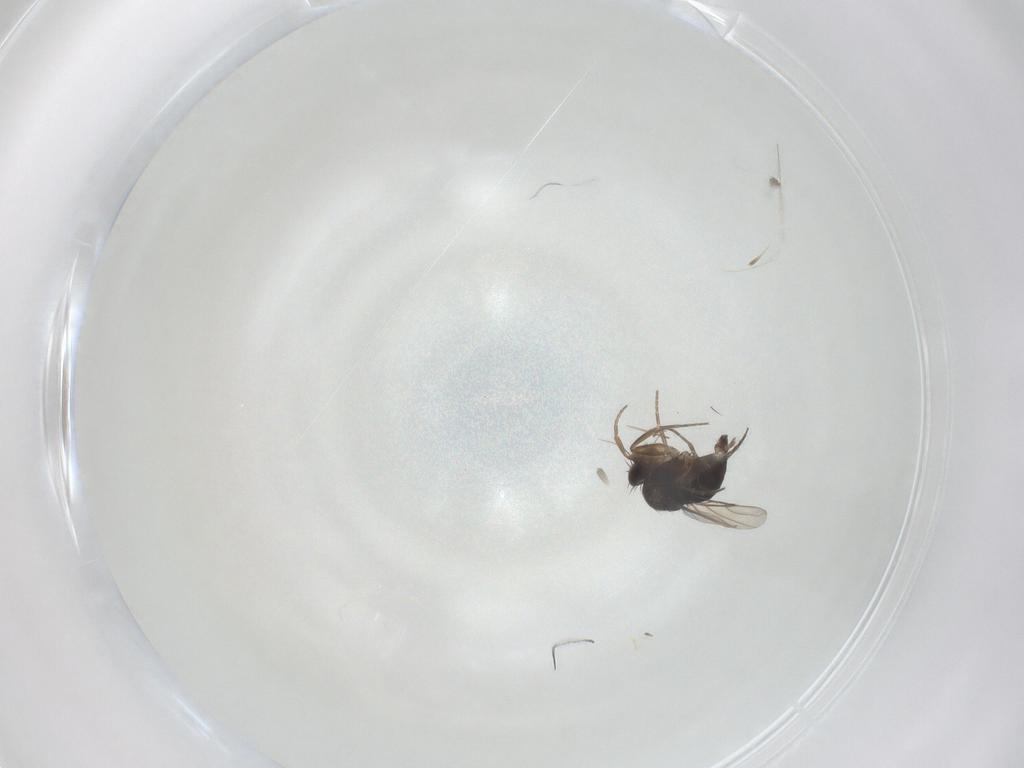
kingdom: Animalia
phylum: Arthropoda
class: Insecta
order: Diptera
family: Phoridae
